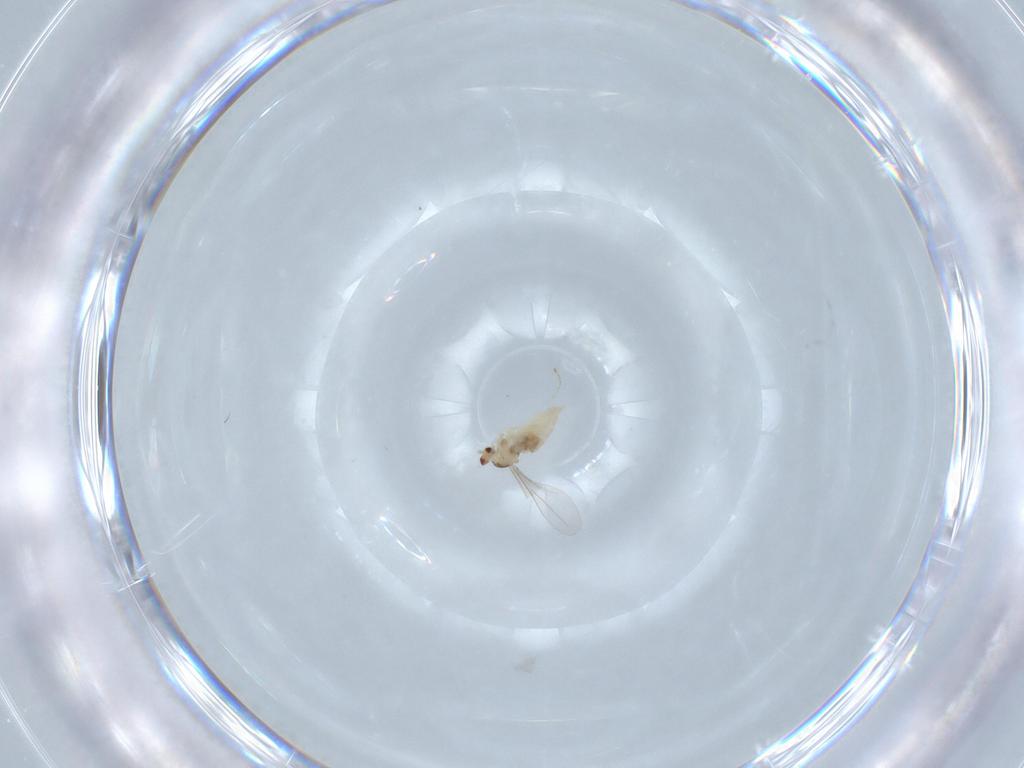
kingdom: Animalia
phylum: Arthropoda
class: Insecta
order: Diptera
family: Cecidomyiidae
